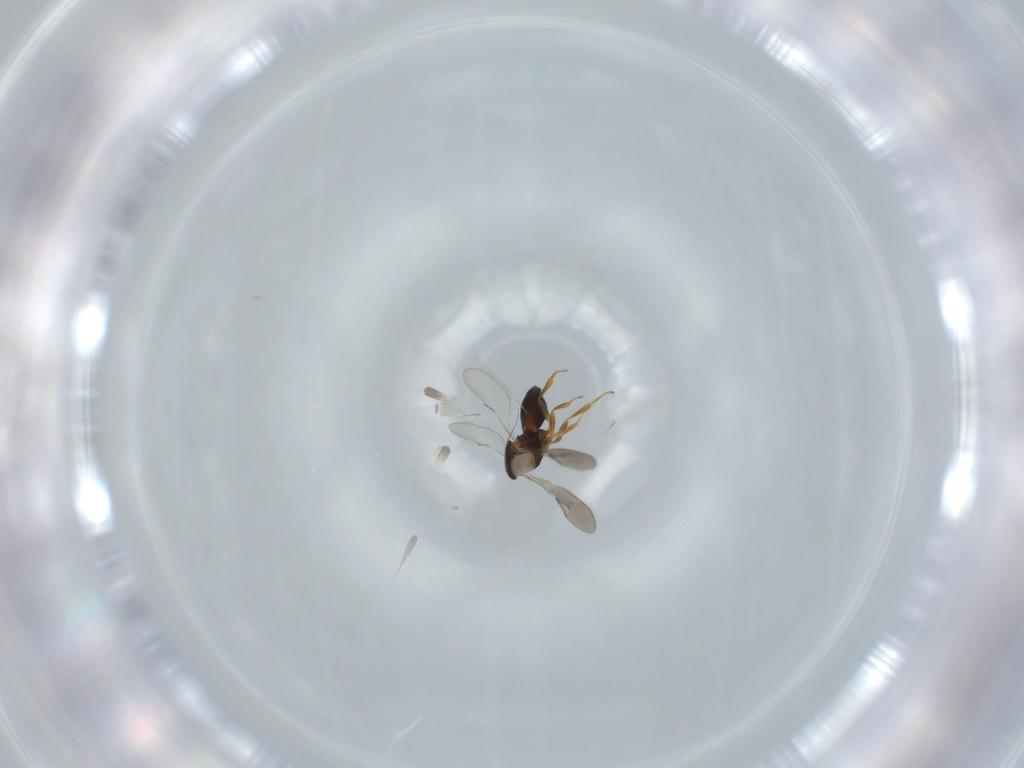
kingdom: Animalia
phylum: Arthropoda
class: Insecta
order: Hymenoptera
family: Scelionidae
